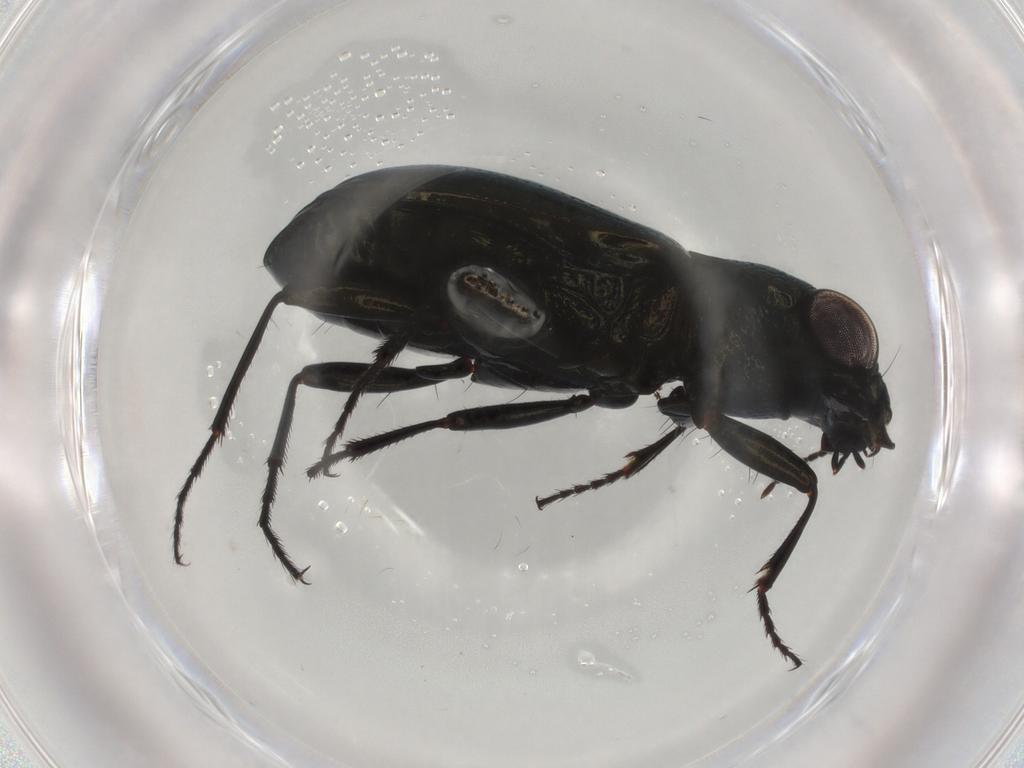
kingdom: Animalia
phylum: Arthropoda
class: Insecta
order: Coleoptera
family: Carabidae
